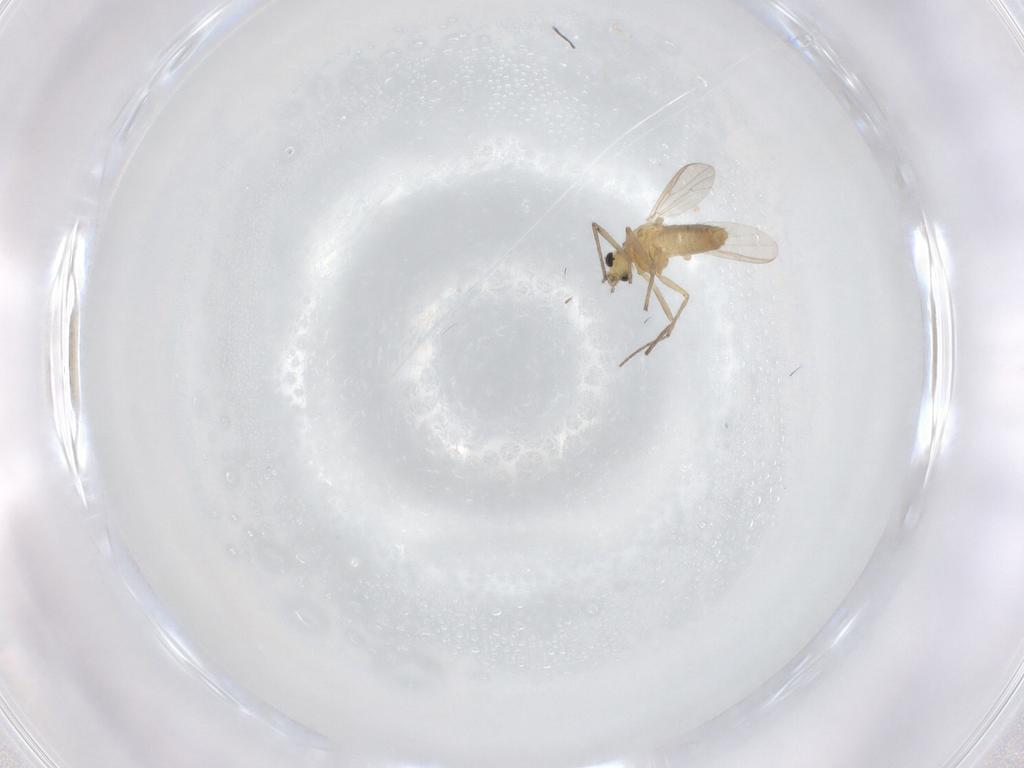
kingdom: Animalia
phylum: Arthropoda
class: Insecta
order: Diptera
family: Chironomidae
